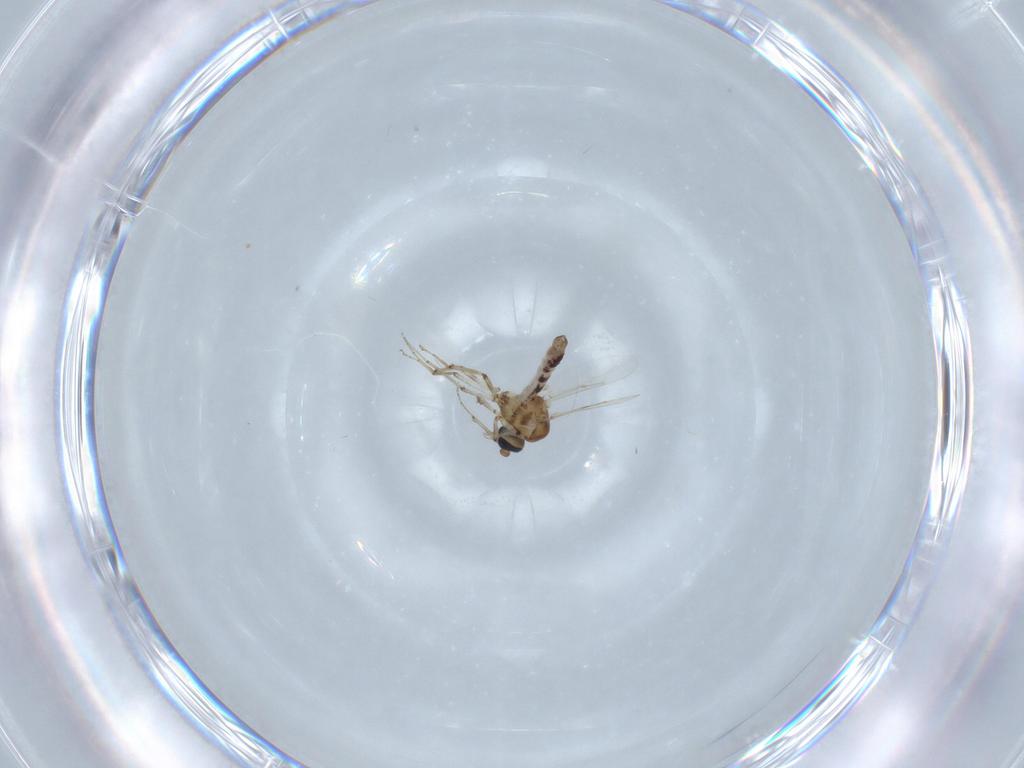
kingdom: Animalia
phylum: Arthropoda
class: Insecta
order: Diptera
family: Ceratopogonidae
